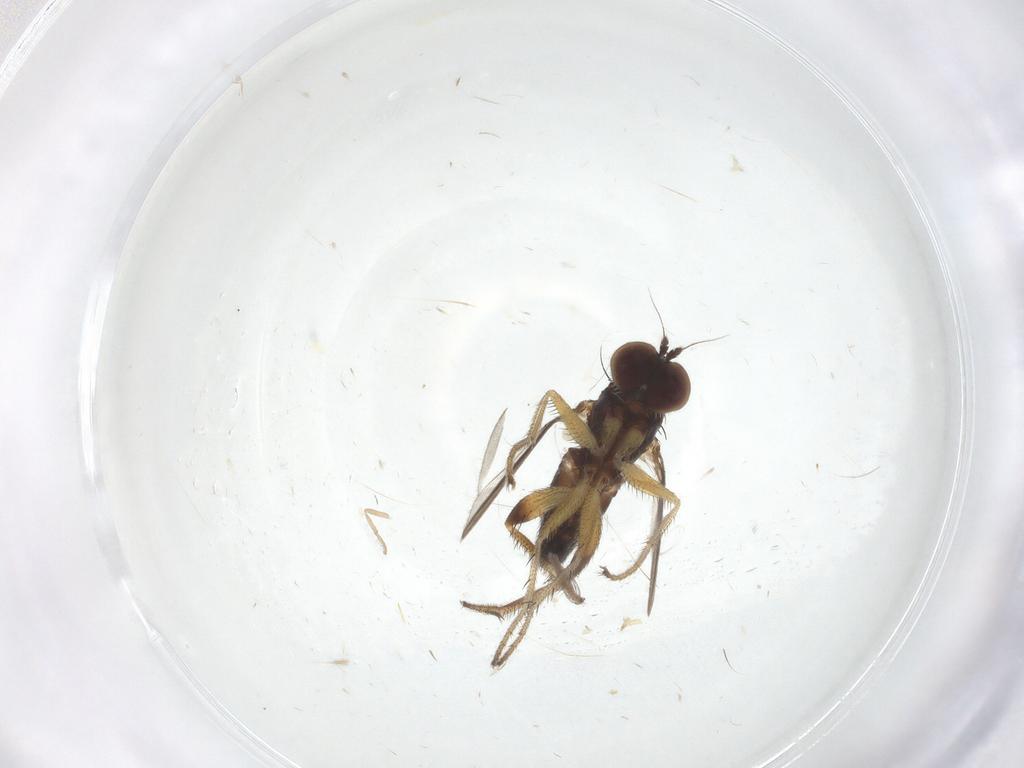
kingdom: Animalia
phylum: Arthropoda
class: Insecta
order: Diptera
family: Ceratopogonidae
